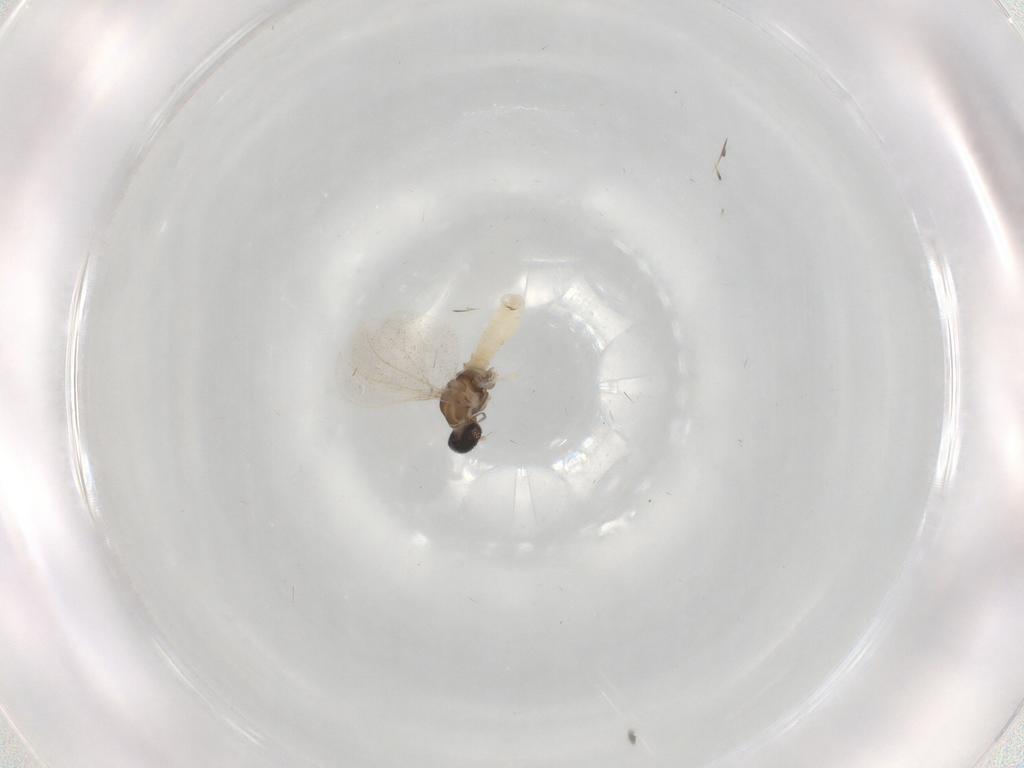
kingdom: Animalia
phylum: Arthropoda
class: Insecta
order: Diptera
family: Cecidomyiidae
